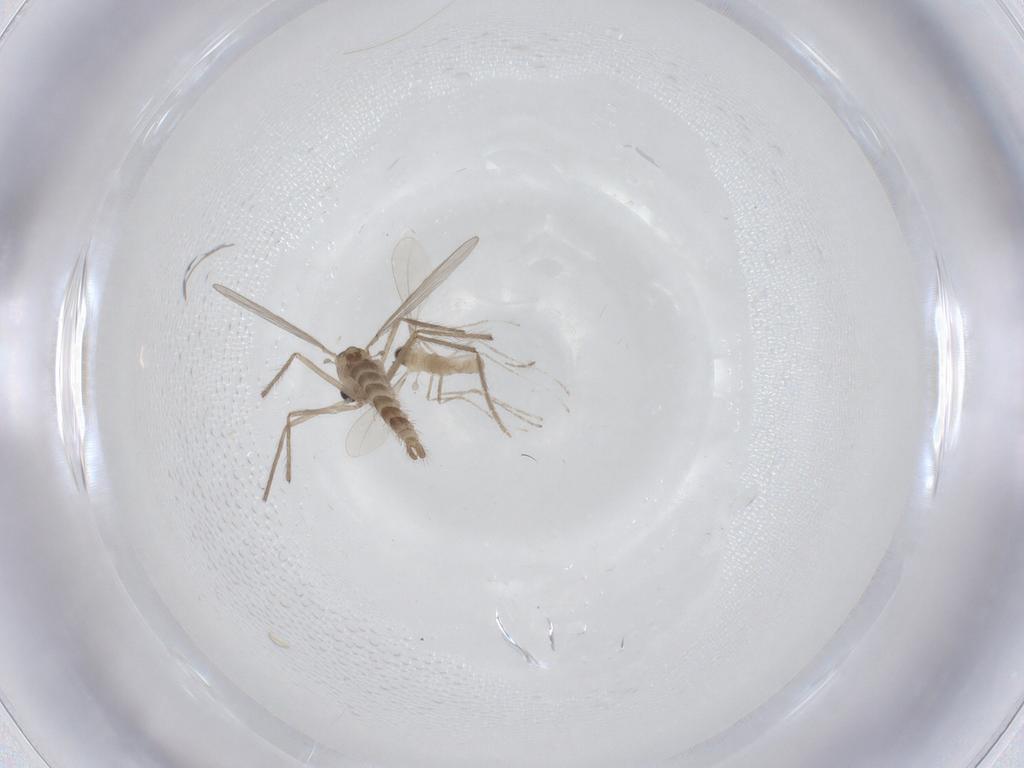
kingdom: Animalia
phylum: Arthropoda
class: Insecta
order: Diptera
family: Chironomidae
